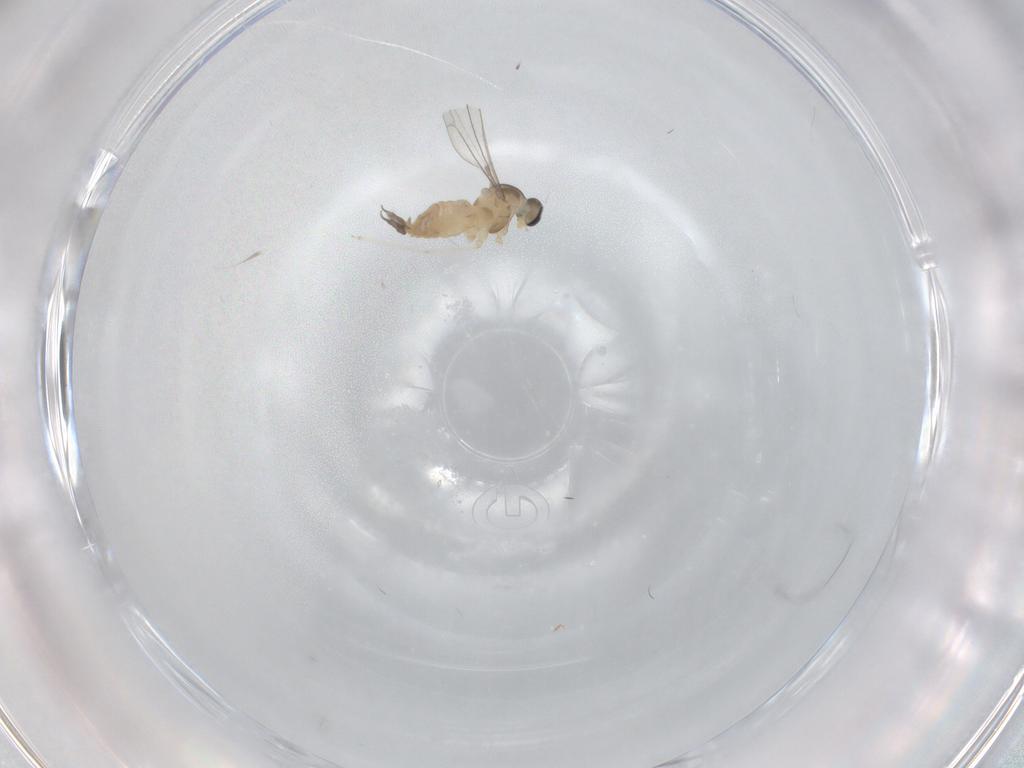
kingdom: Animalia
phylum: Arthropoda
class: Insecta
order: Diptera
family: Cecidomyiidae
